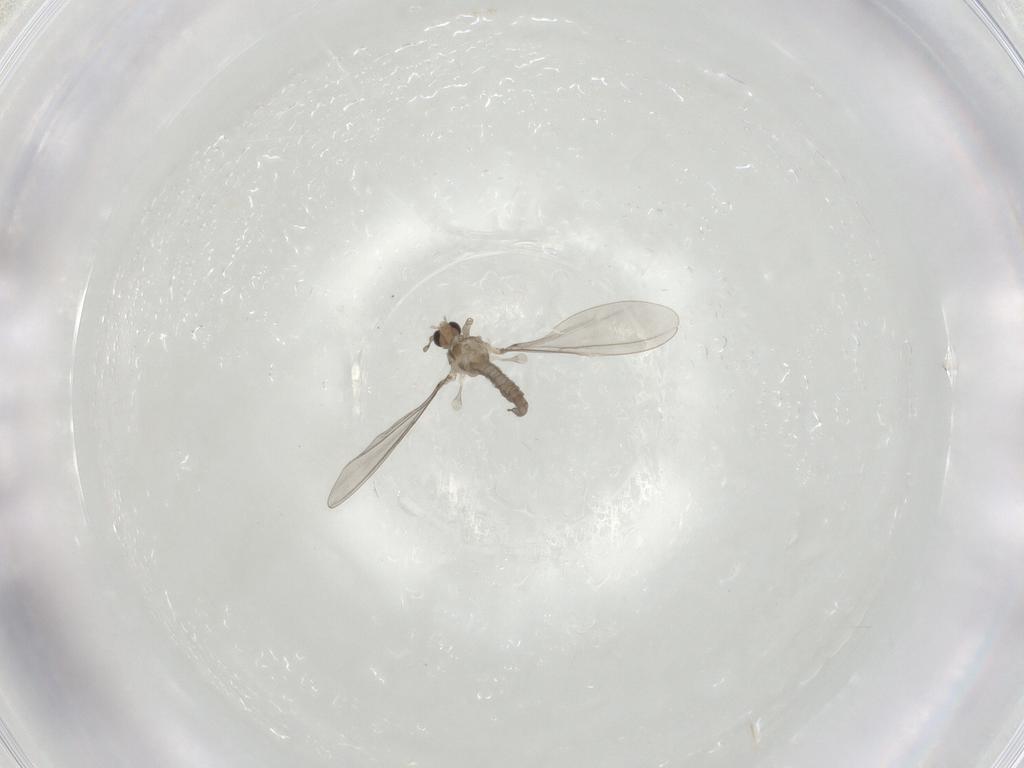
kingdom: Animalia
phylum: Arthropoda
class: Insecta
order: Diptera
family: Cecidomyiidae
